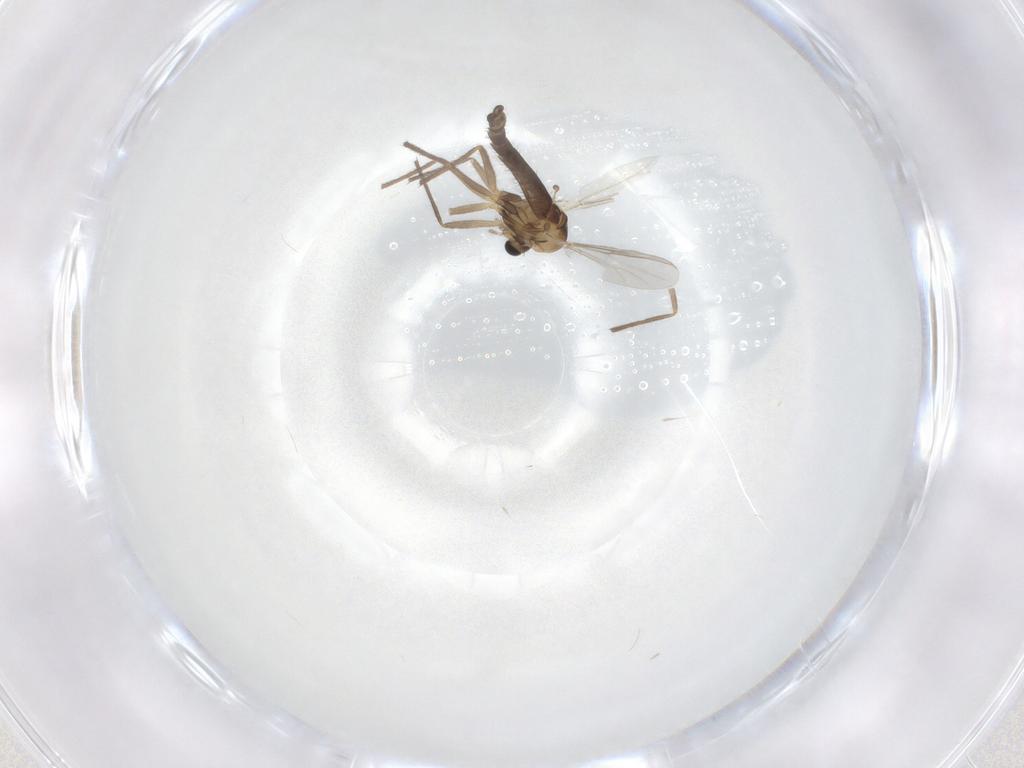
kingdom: Animalia
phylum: Arthropoda
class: Insecta
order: Diptera
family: Chironomidae
